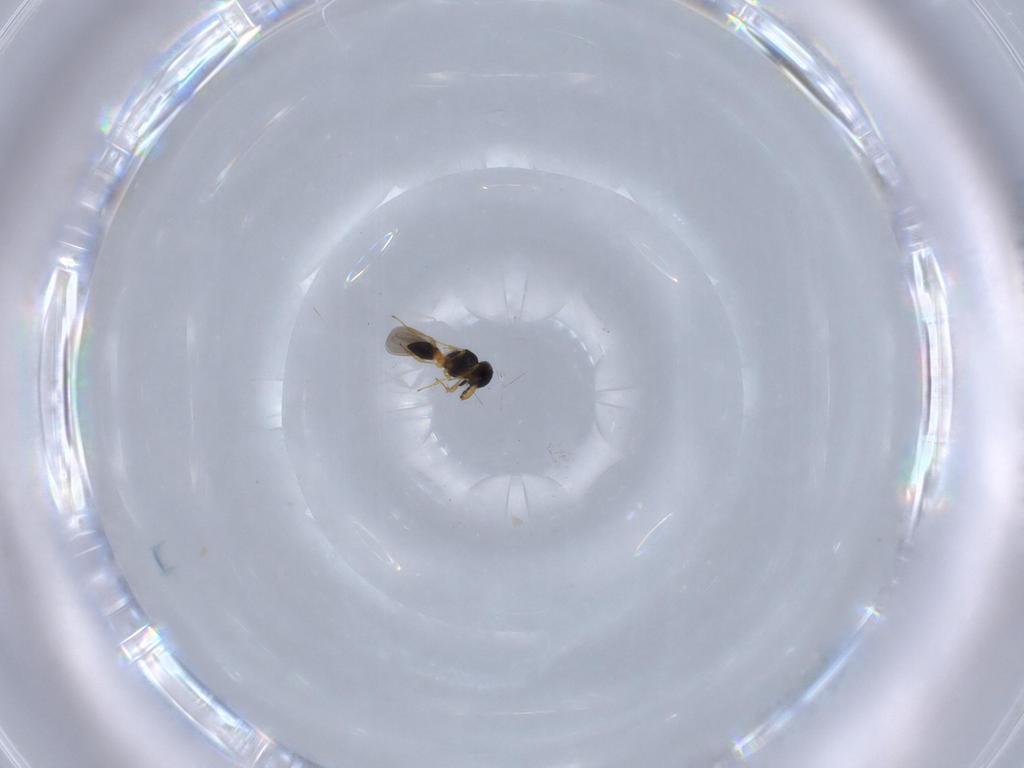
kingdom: Animalia
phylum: Arthropoda
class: Insecta
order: Hymenoptera
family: Platygastridae
